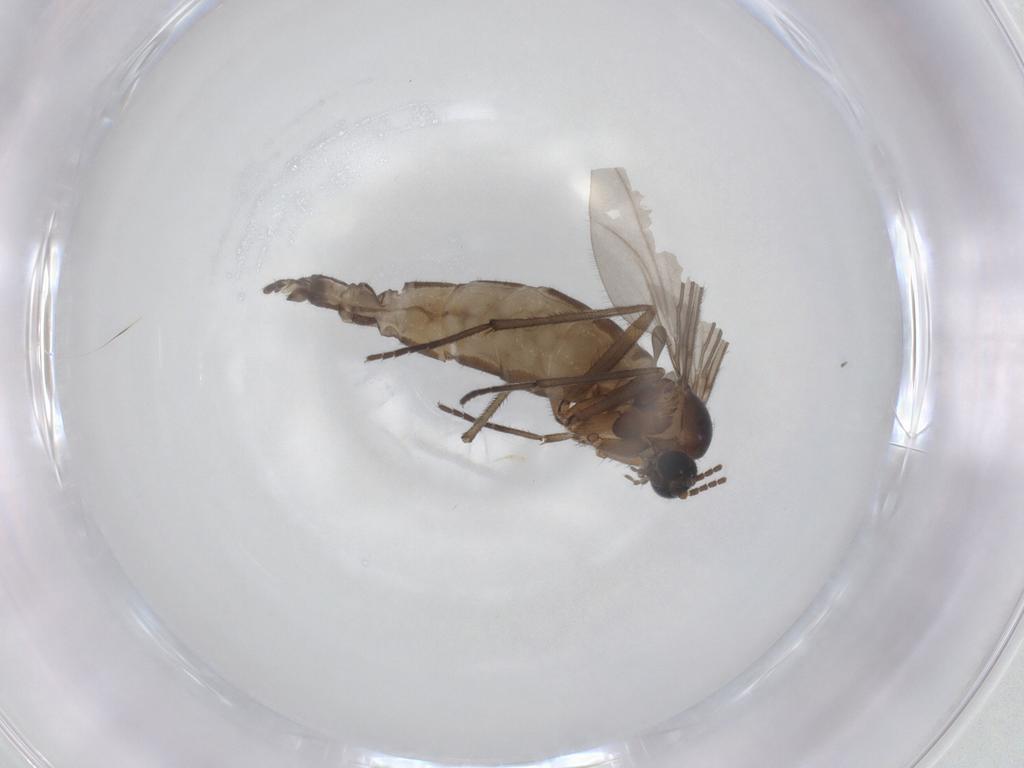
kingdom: Animalia
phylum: Arthropoda
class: Insecta
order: Diptera
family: Sciaridae
